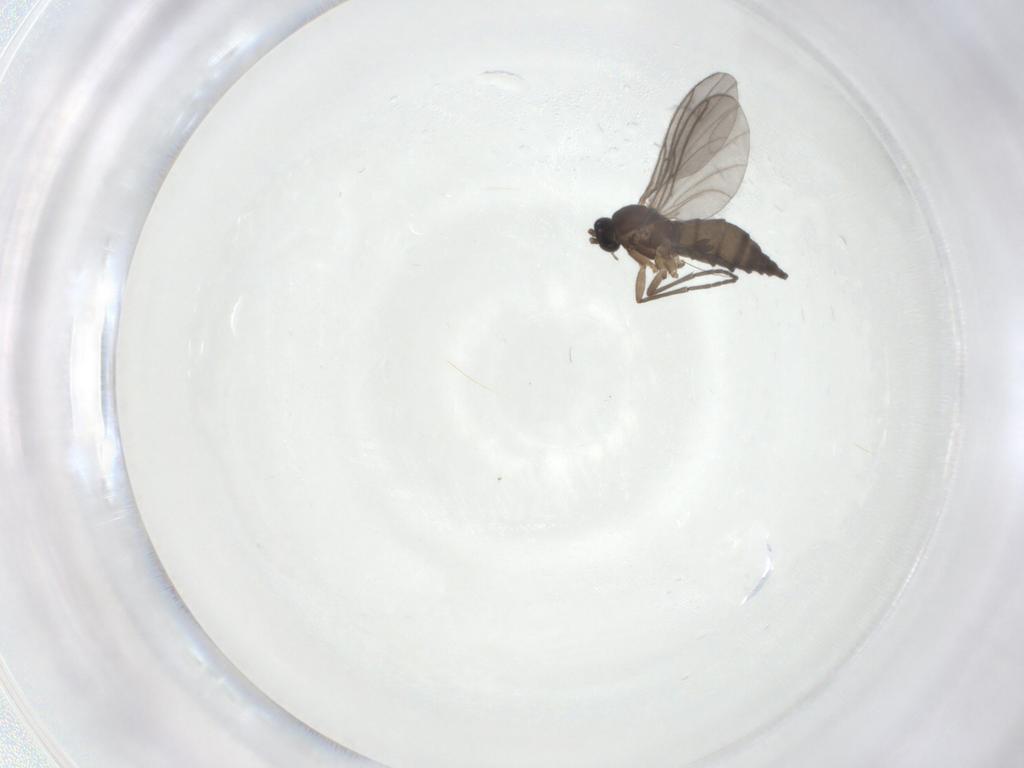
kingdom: Animalia
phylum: Arthropoda
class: Insecta
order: Diptera
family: Sciaridae
